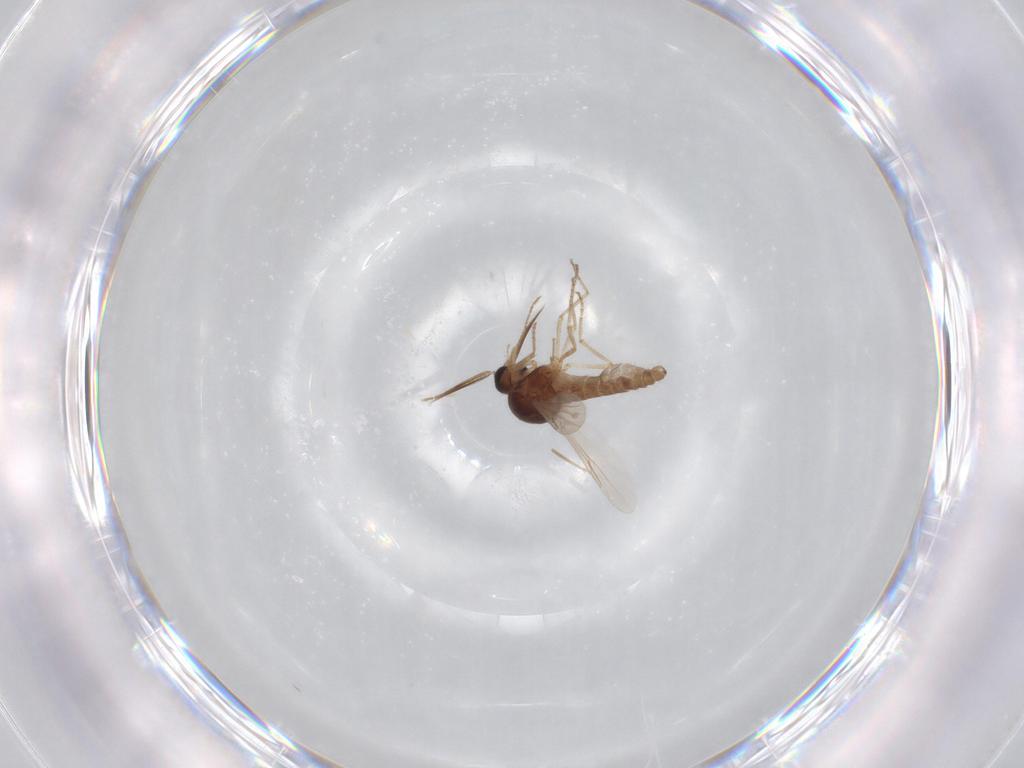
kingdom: Animalia
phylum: Arthropoda
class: Insecta
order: Diptera
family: Ceratopogonidae
